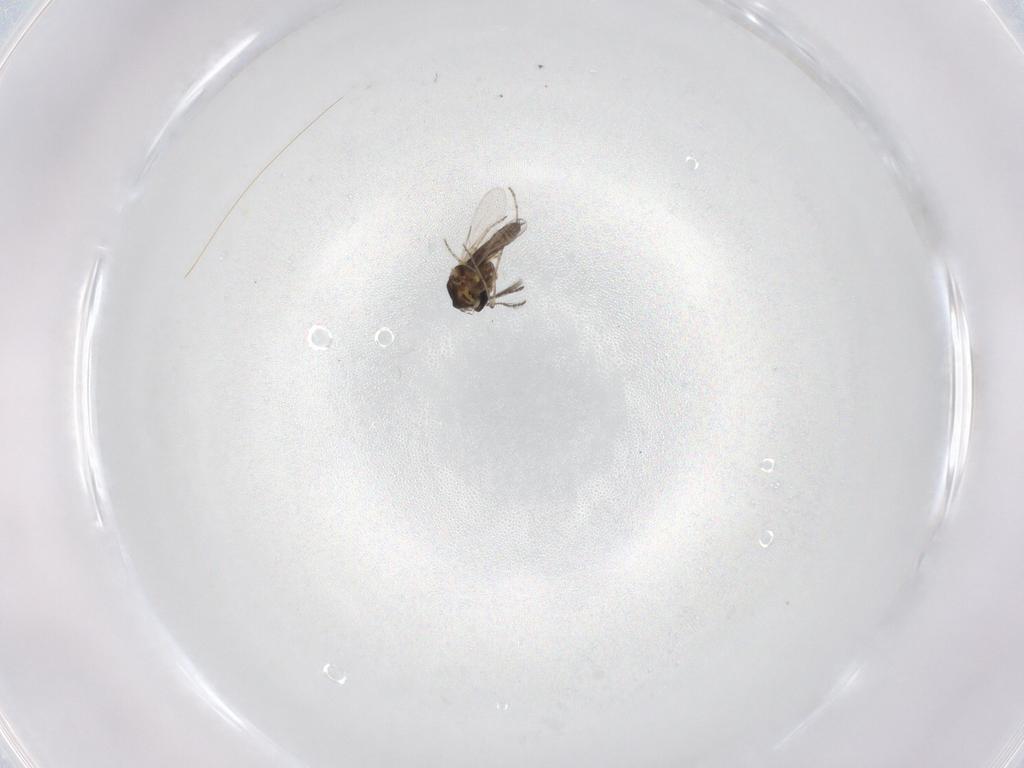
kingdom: Animalia
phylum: Arthropoda
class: Insecta
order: Diptera
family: Ceratopogonidae
